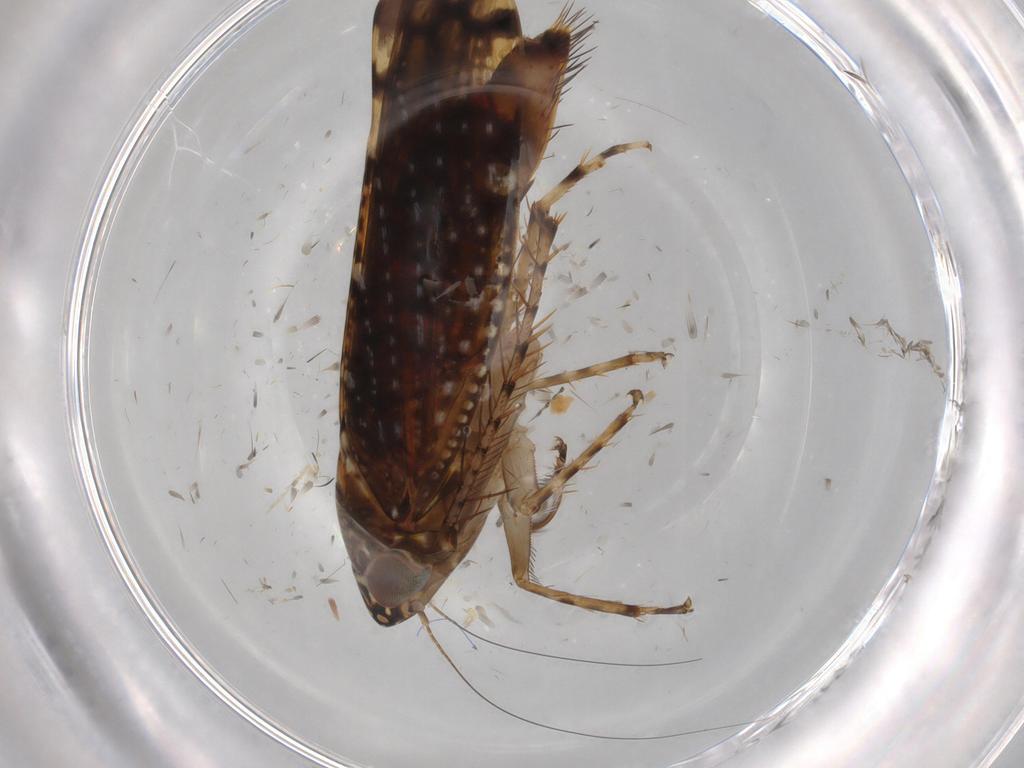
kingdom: Animalia
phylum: Arthropoda
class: Insecta
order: Hemiptera
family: Cicadellidae
